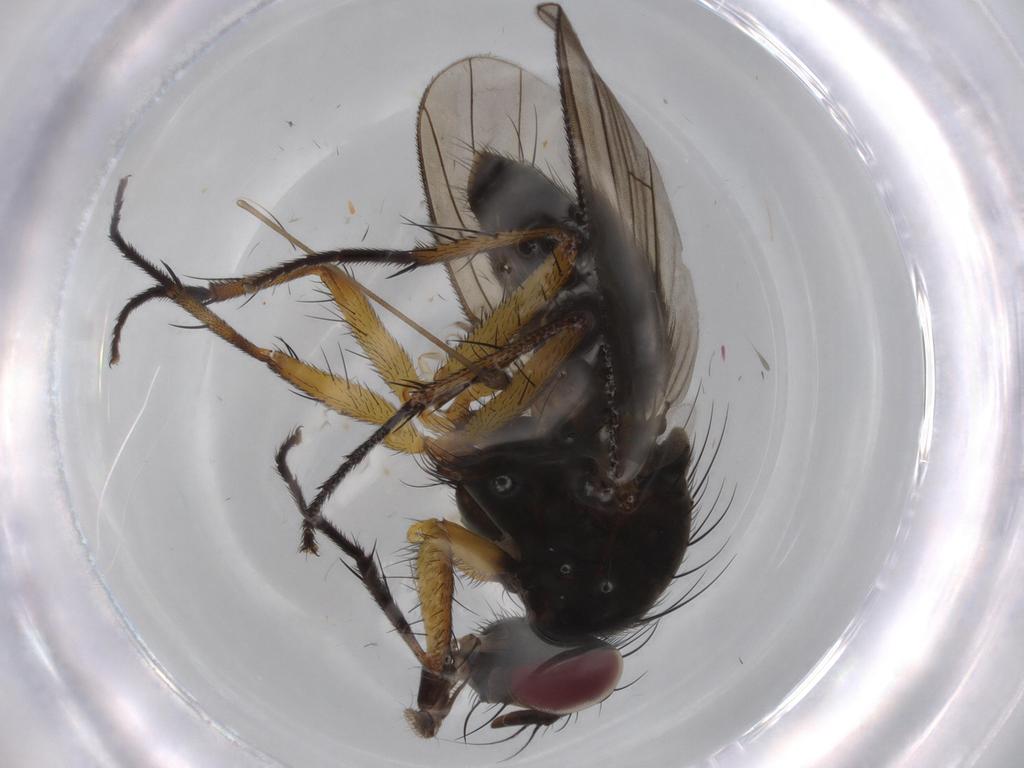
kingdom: Animalia
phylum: Arthropoda
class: Insecta
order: Diptera
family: Muscidae
